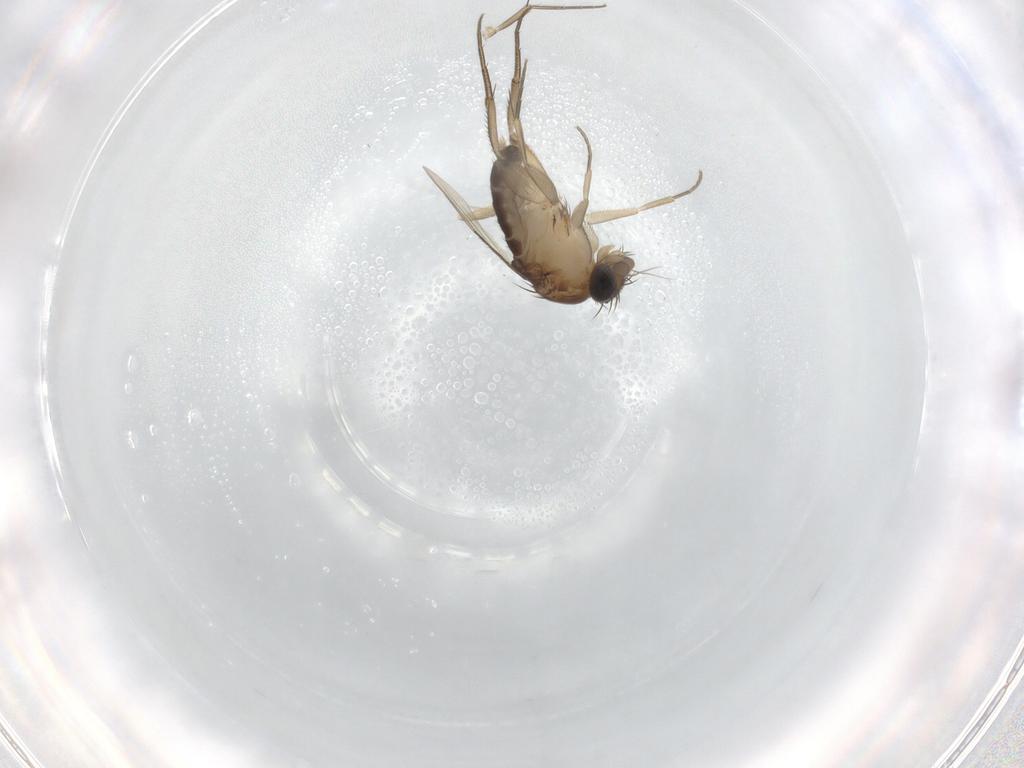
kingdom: Animalia
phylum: Arthropoda
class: Insecta
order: Diptera
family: Phoridae
